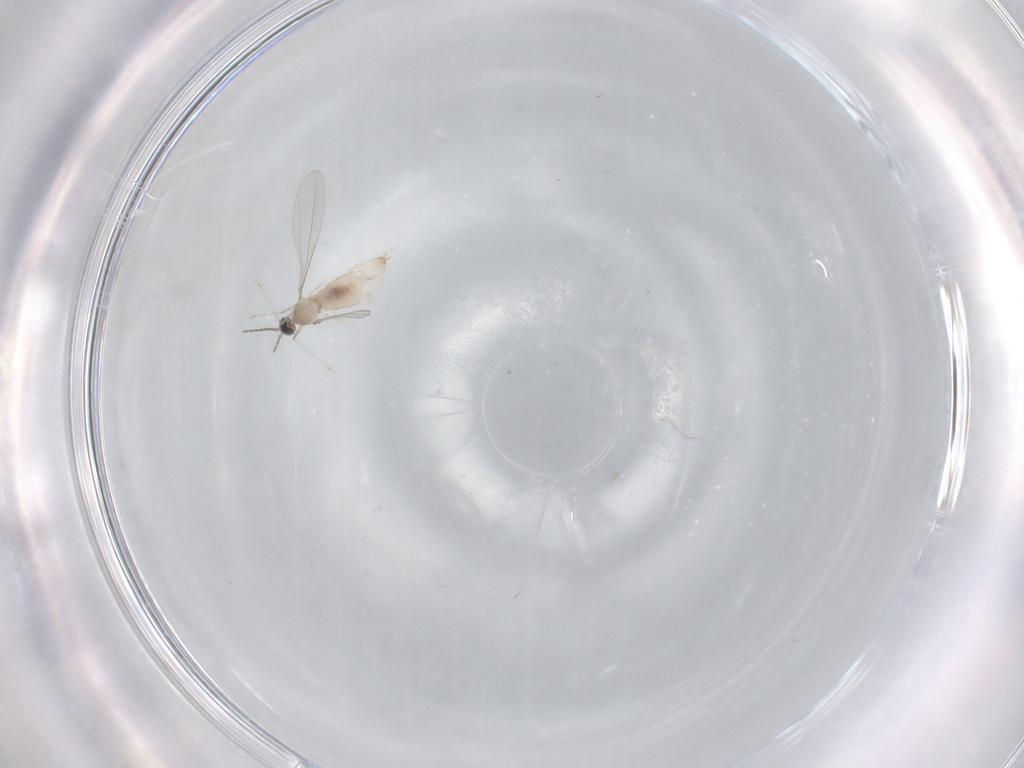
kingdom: Animalia
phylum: Arthropoda
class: Insecta
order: Diptera
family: Cecidomyiidae
